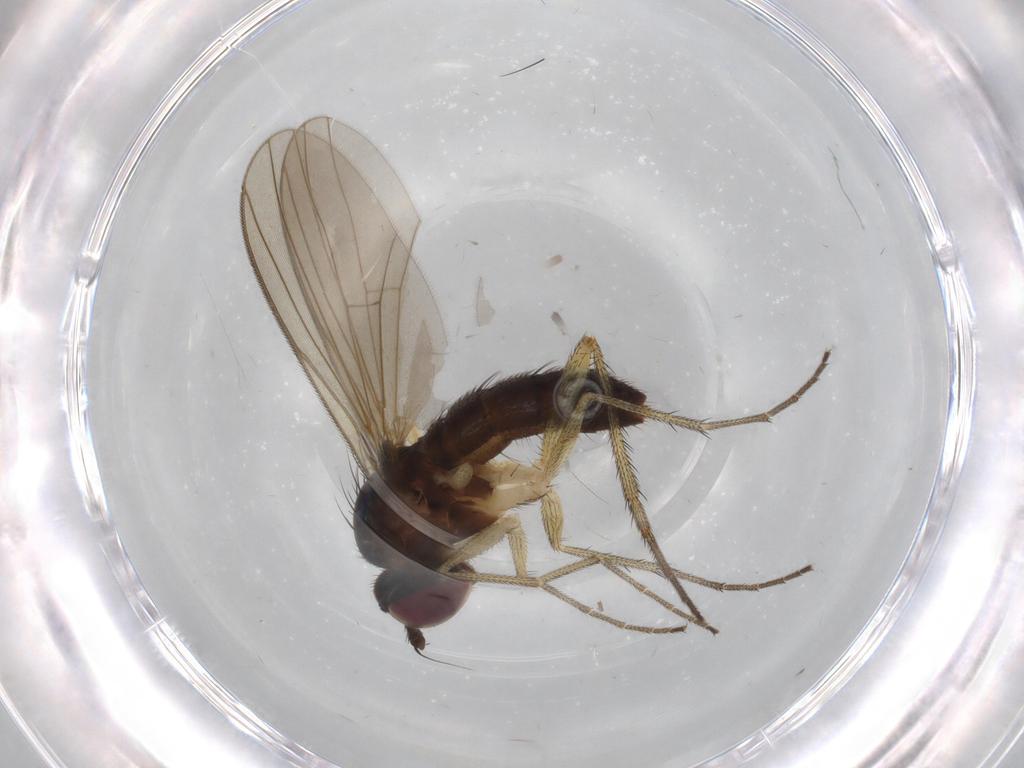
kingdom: Animalia
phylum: Arthropoda
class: Insecta
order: Diptera
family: Dolichopodidae
